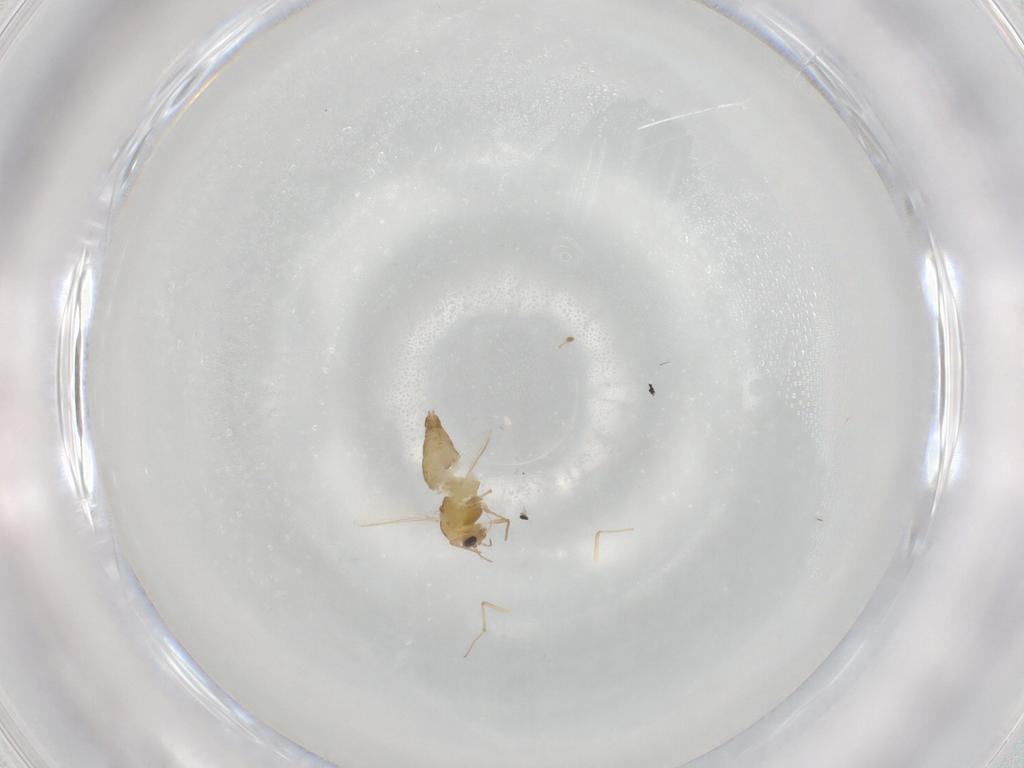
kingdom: Animalia
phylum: Arthropoda
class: Insecta
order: Diptera
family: Chironomidae
